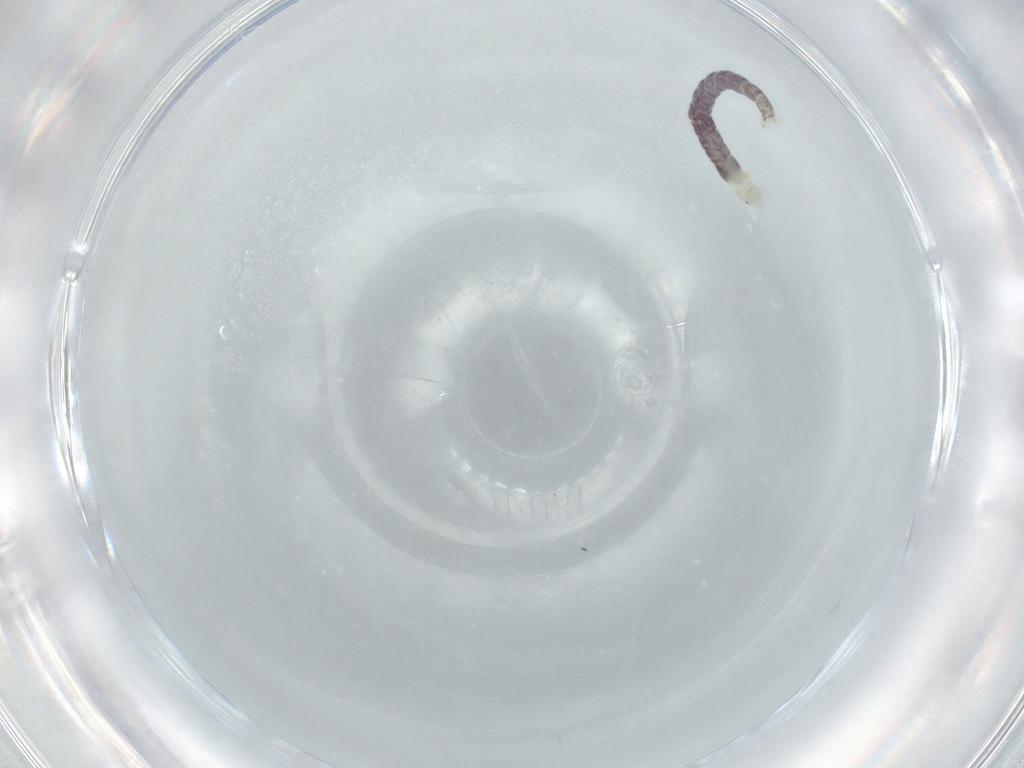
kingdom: Animalia
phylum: Arthropoda
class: Insecta
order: Diptera
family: Chironomidae
